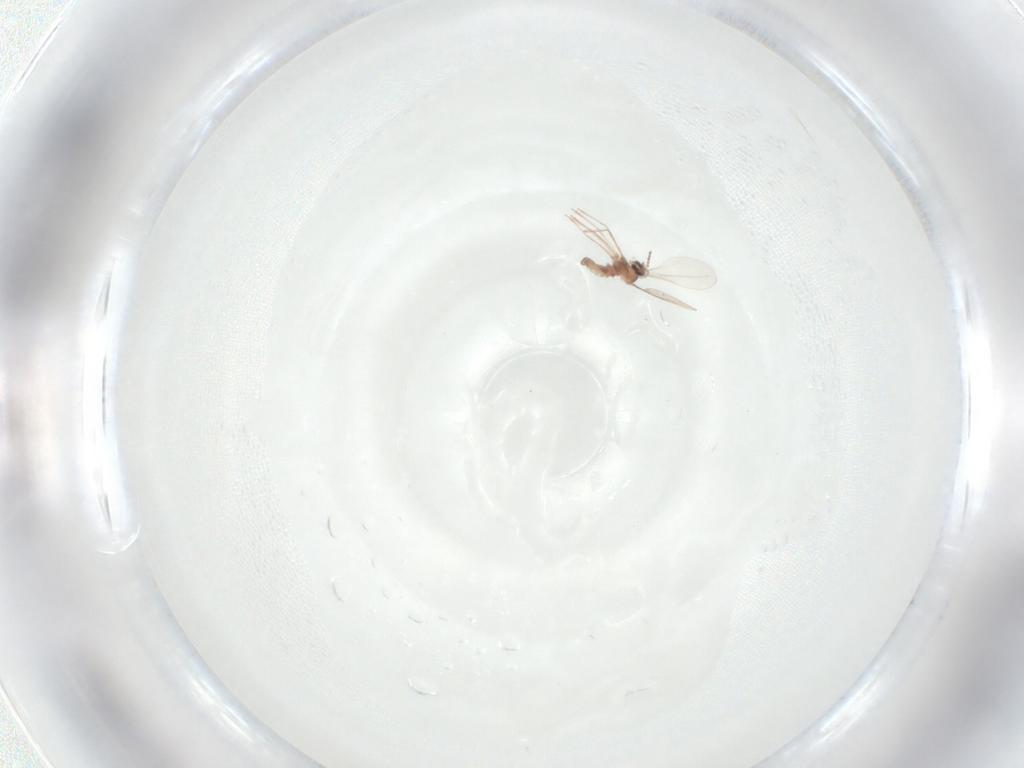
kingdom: Animalia
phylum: Arthropoda
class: Insecta
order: Diptera
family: Cecidomyiidae
